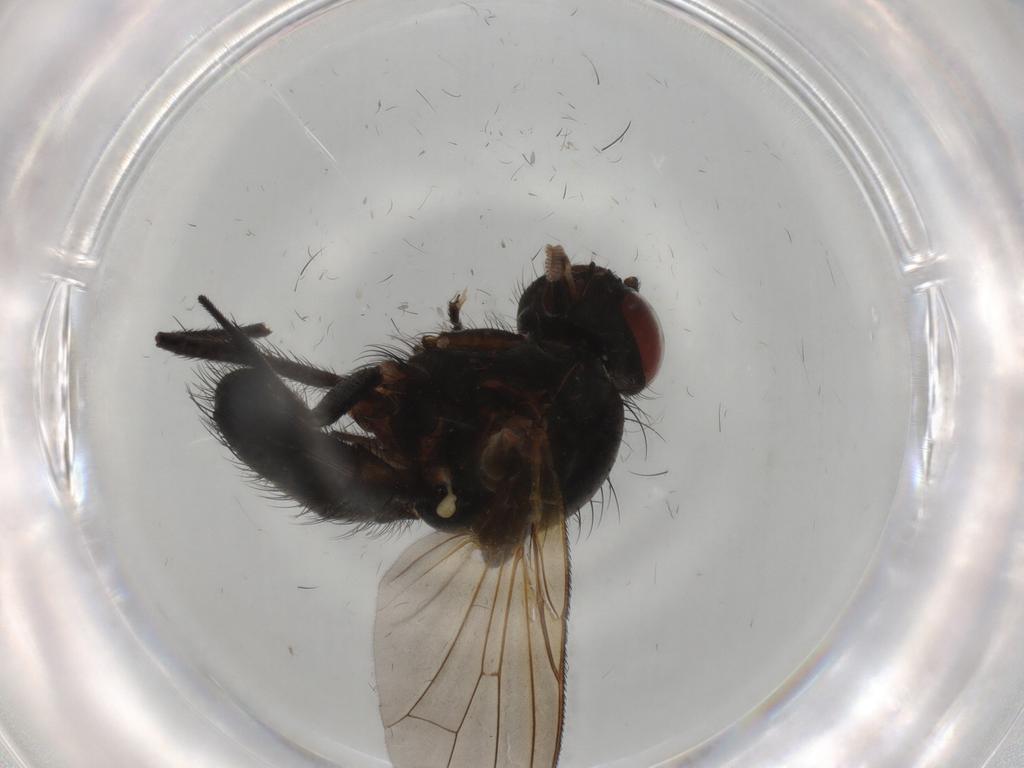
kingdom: Animalia
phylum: Arthropoda
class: Insecta
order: Diptera
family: Anthomyiidae
